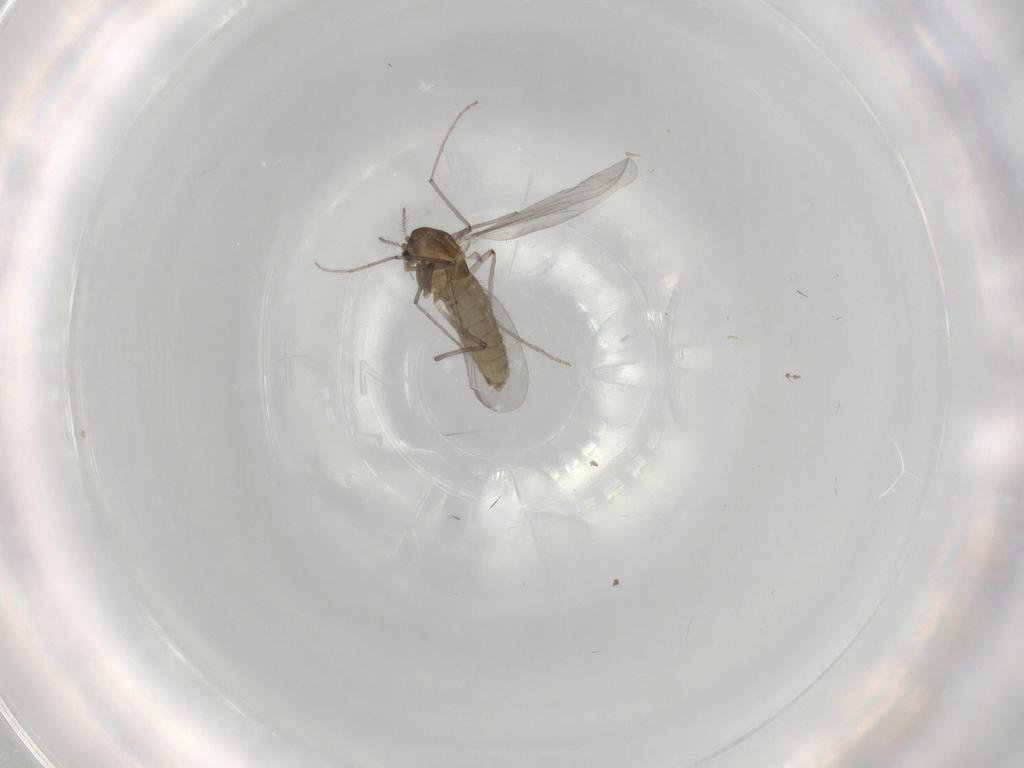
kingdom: Animalia
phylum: Arthropoda
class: Insecta
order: Diptera
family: Chironomidae
